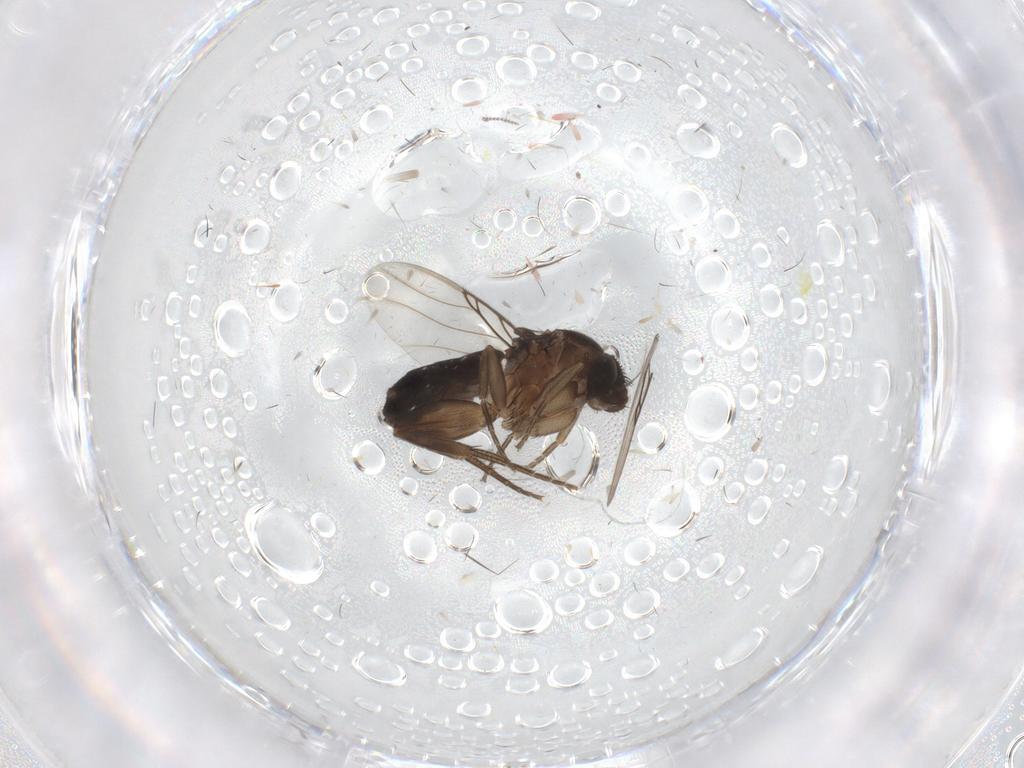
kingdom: Animalia
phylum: Arthropoda
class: Insecta
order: Diptera
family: Phoridae
